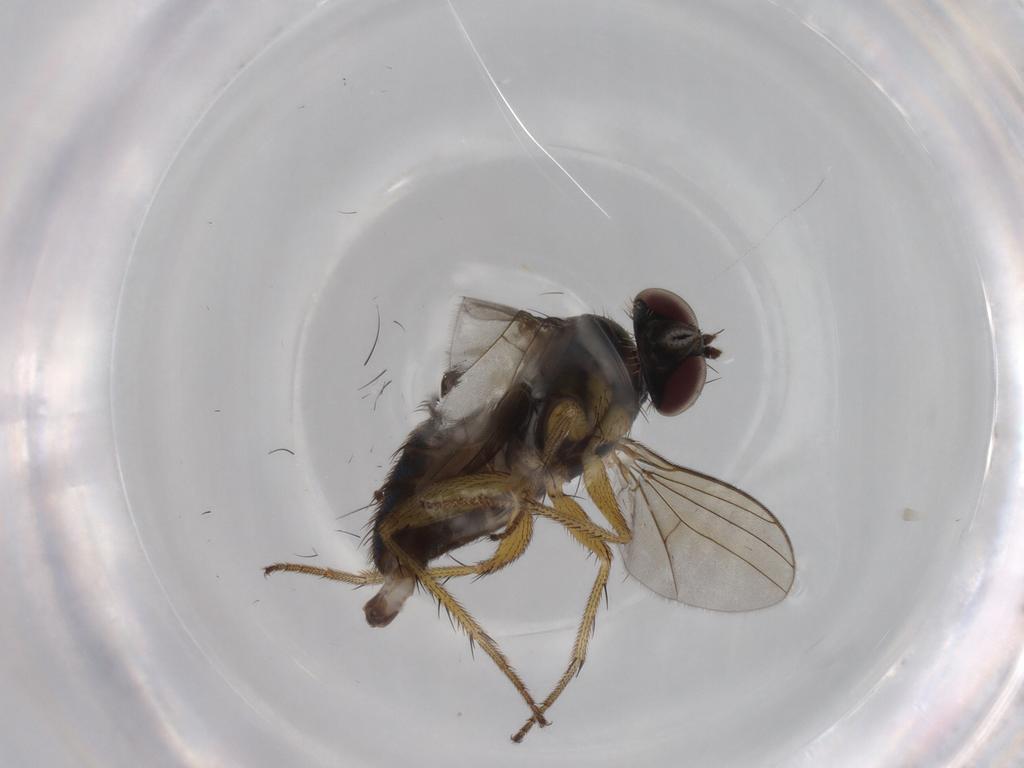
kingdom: Animalia
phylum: Arthropoda
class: Insecta
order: Diptera
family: Dolichopodidae
